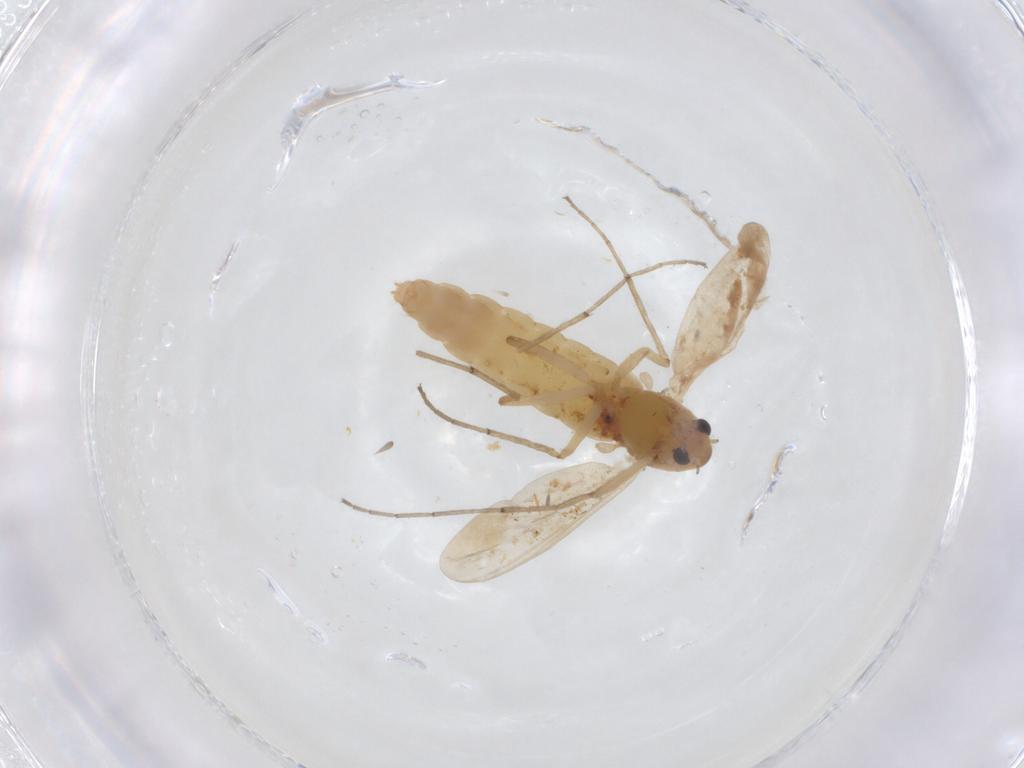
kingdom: Animalia
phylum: Arthropoda
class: Insecta
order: Diptera
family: Chironomidae
